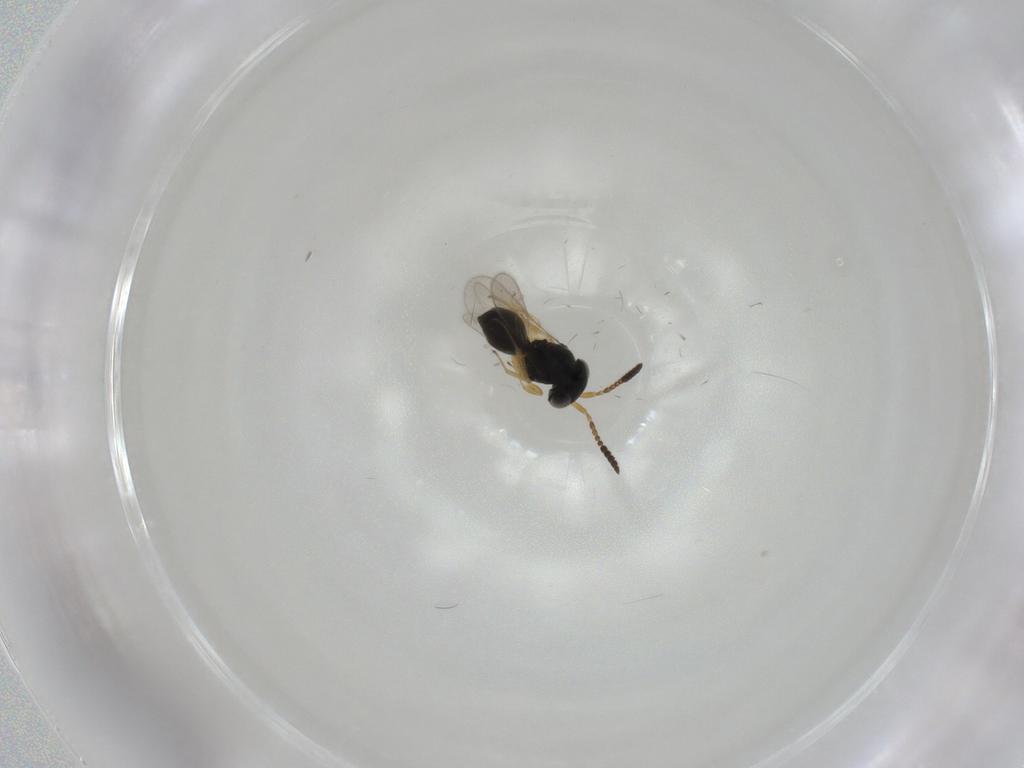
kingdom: Animalia
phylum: Arthropoda
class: Insecta
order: Hymenoptera
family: Scelionidae
